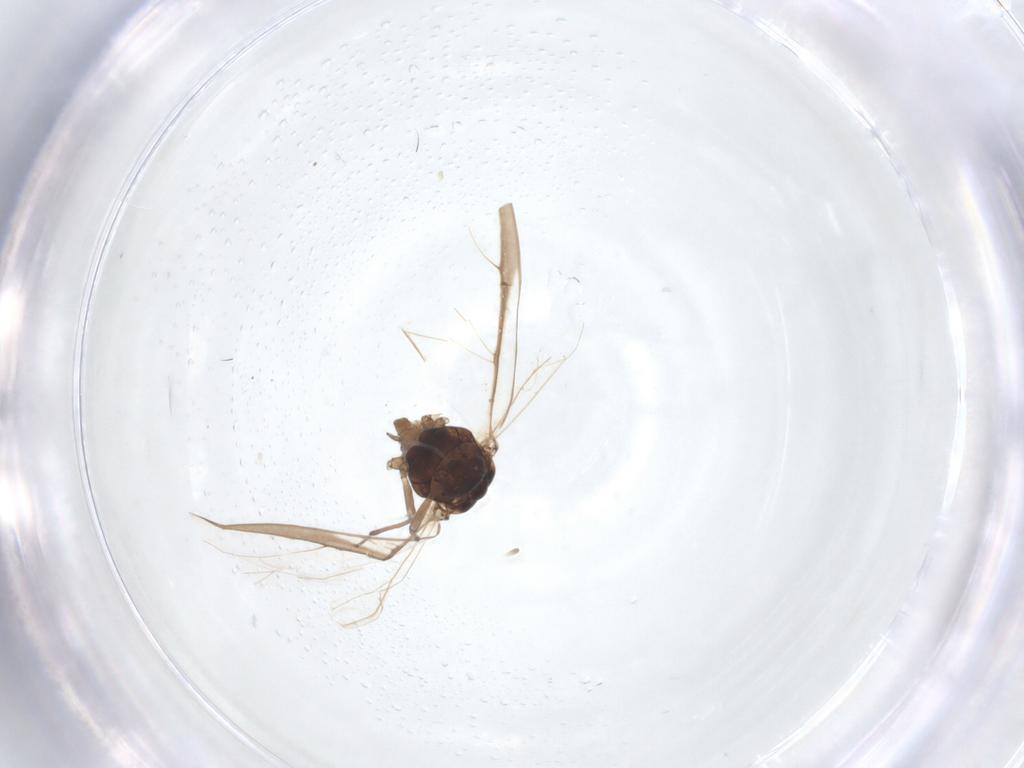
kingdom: Animalia
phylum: Arthropoda
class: Insecta
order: Hemiptera
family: Aphididae
